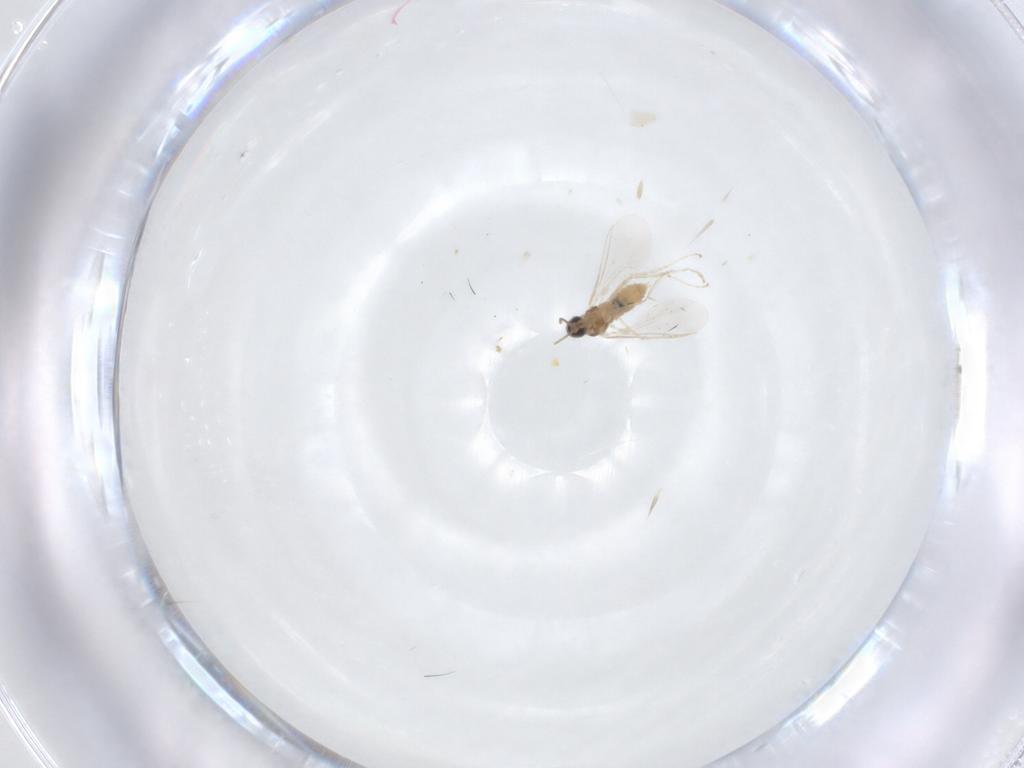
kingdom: Animalia
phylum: Arthropoda
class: Insecta
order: Diptera
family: Cecidomyiidae
